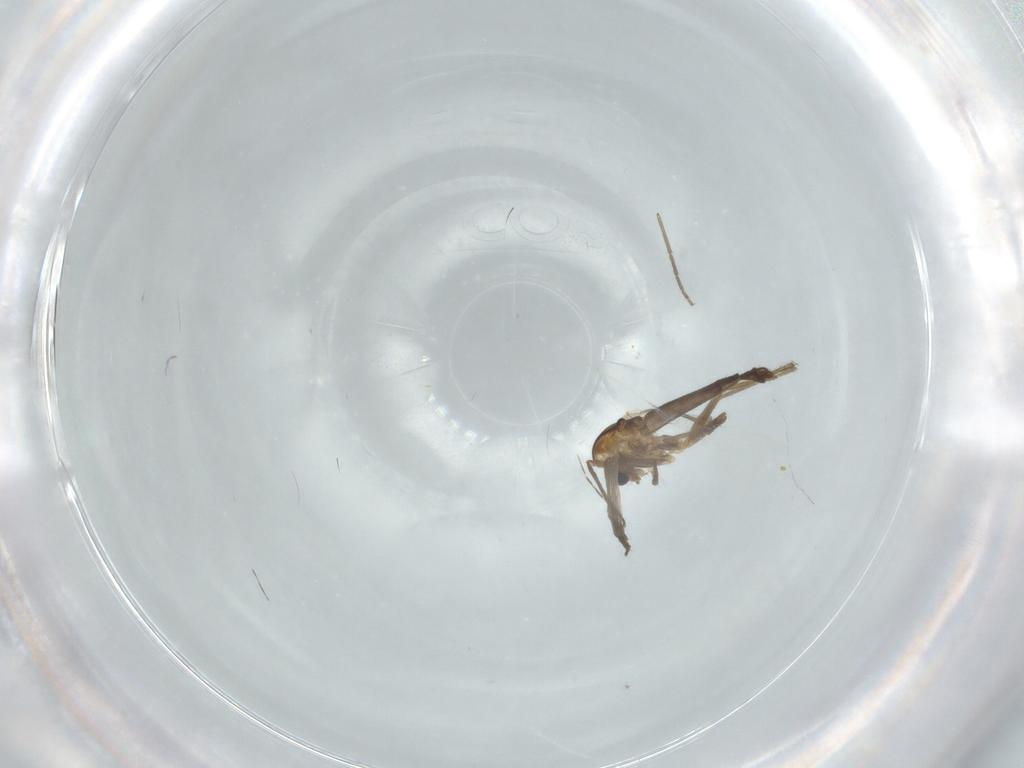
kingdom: Animalia
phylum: Arthropoda
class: Insecta
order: Diptera
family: Chironomidae
